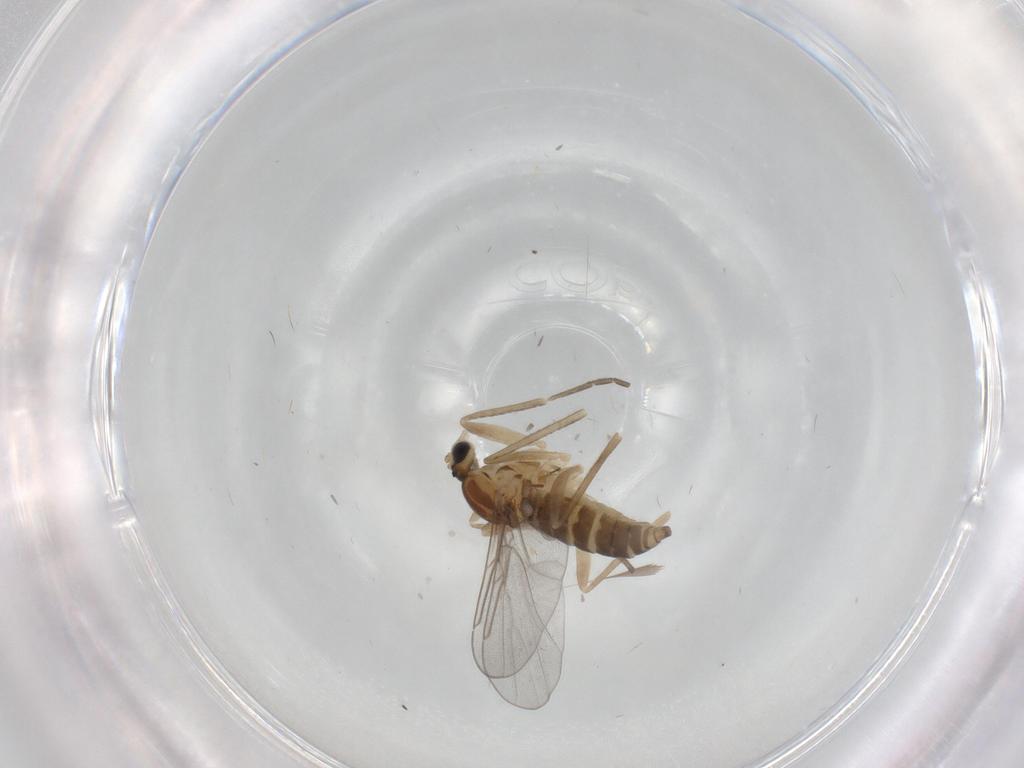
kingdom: Animalia
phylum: Arthropoda
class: Insecta
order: Diptera
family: Cecidomyiidae
